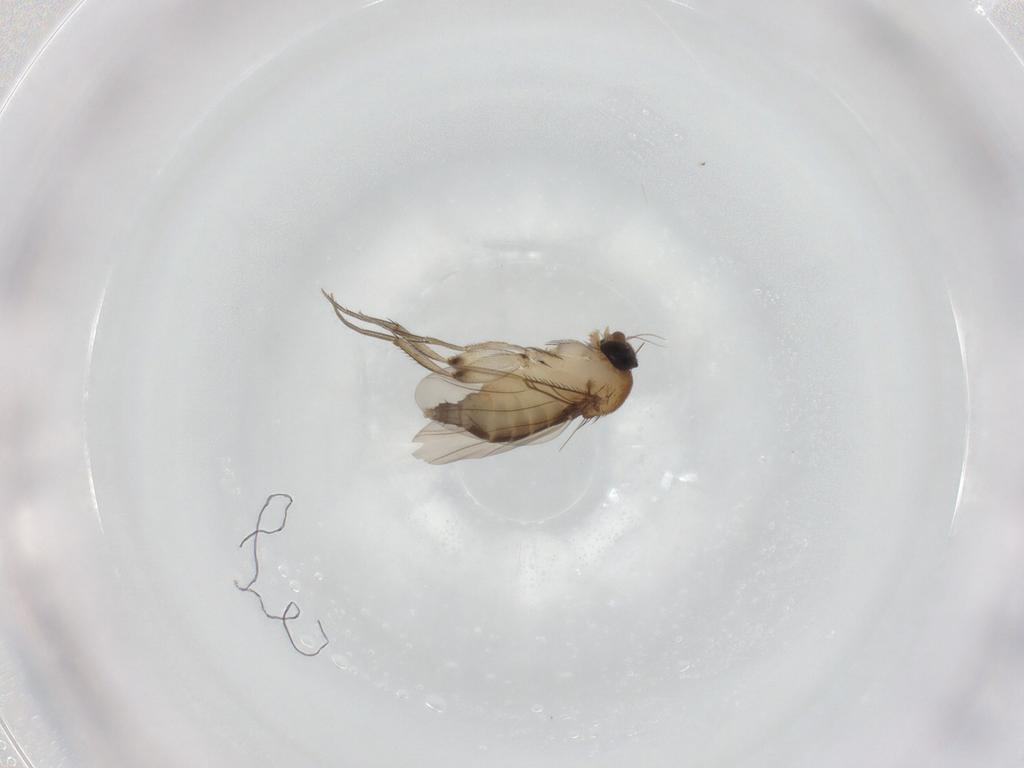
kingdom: Animalia
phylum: Arthropoda
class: Insecta
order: Diptera
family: Phoridae
